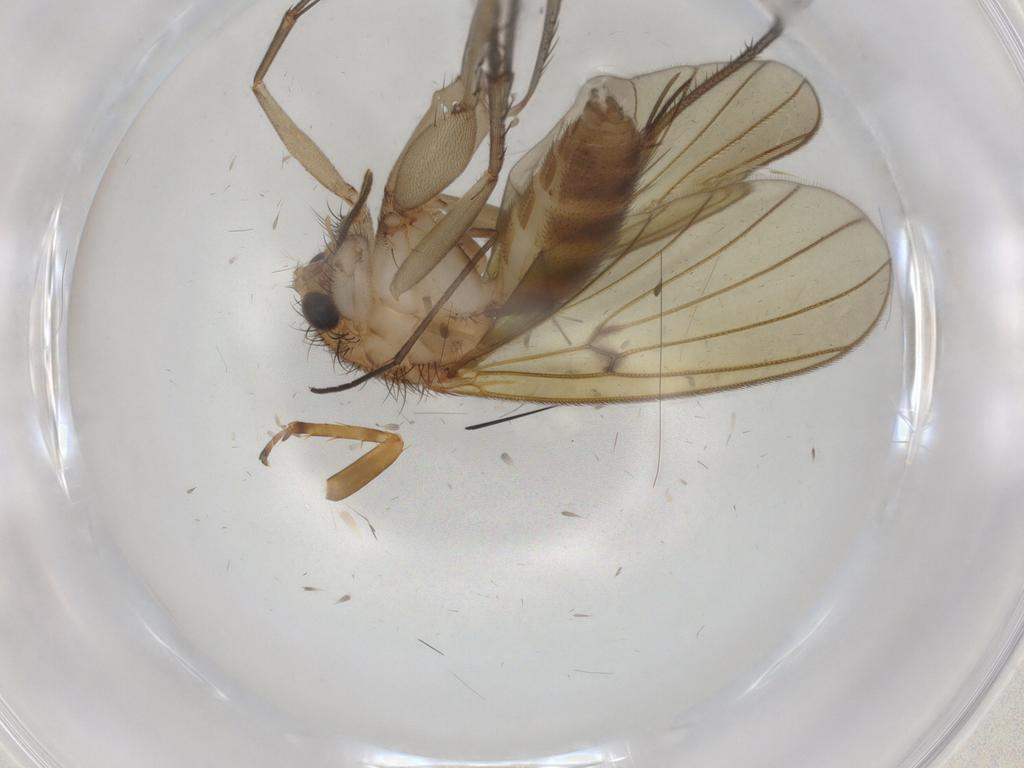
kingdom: Animalia
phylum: Arthropoda
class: Insecta
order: Diptera
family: Mycetophilidae
